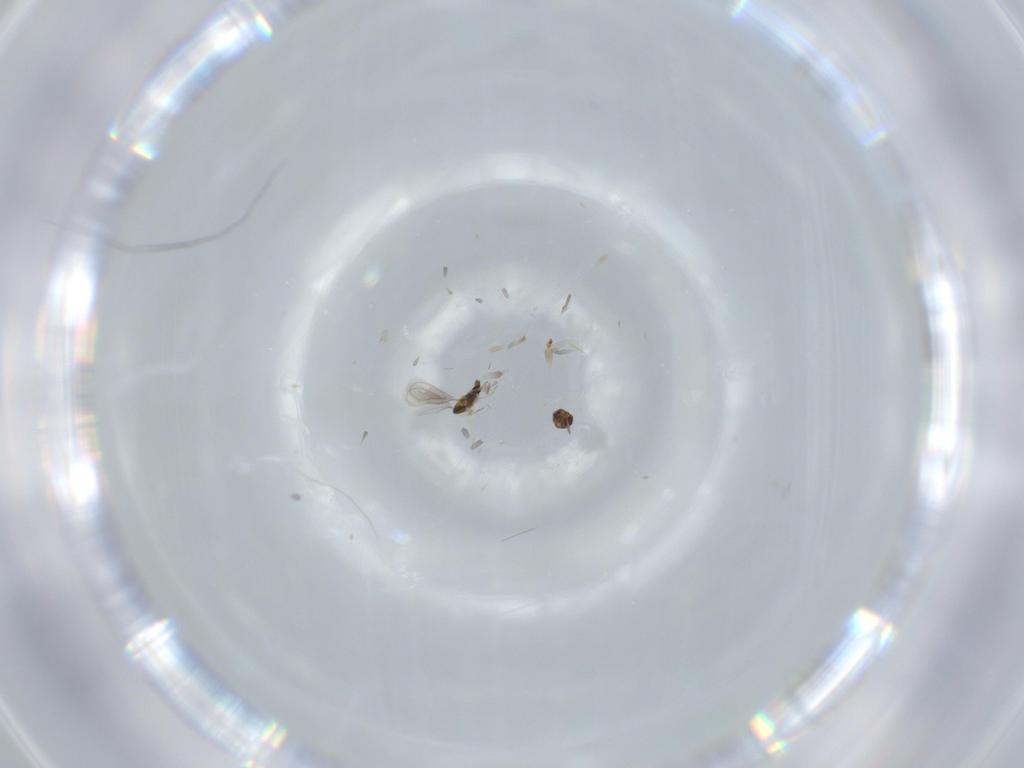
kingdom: Animalia
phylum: Arthropoda
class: Insecta
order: Hymenoptera
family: Aphelinidae
